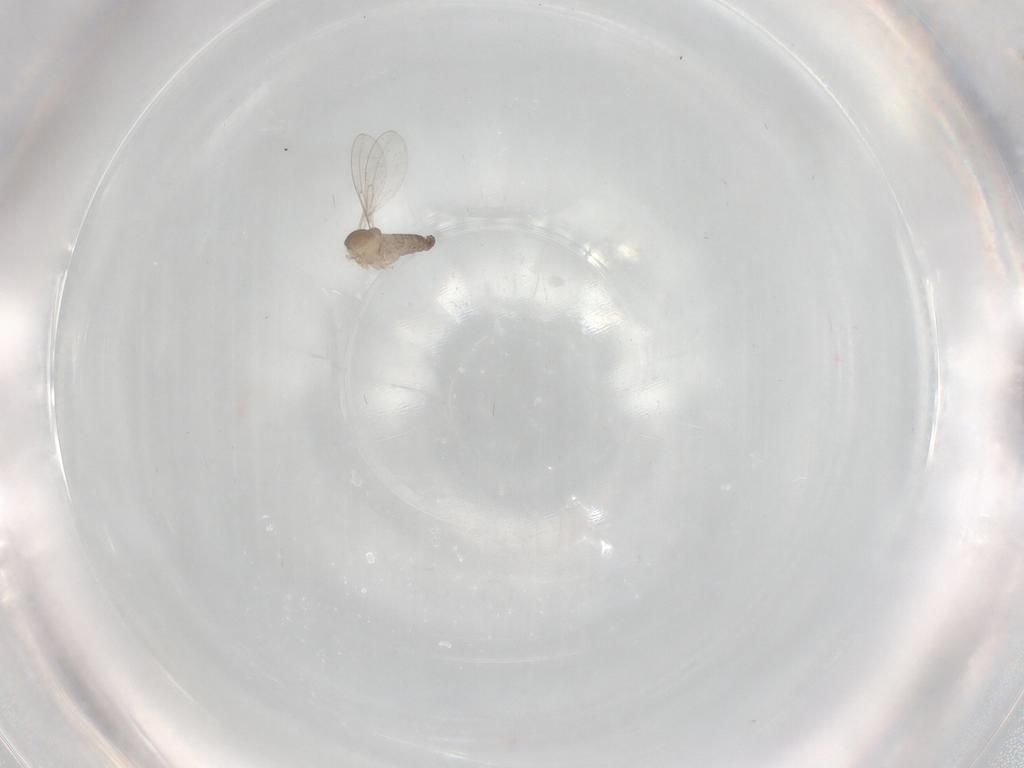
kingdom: Animalia
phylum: Arthropoda
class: Insecta
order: Diptera
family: Cecidomyiidae
